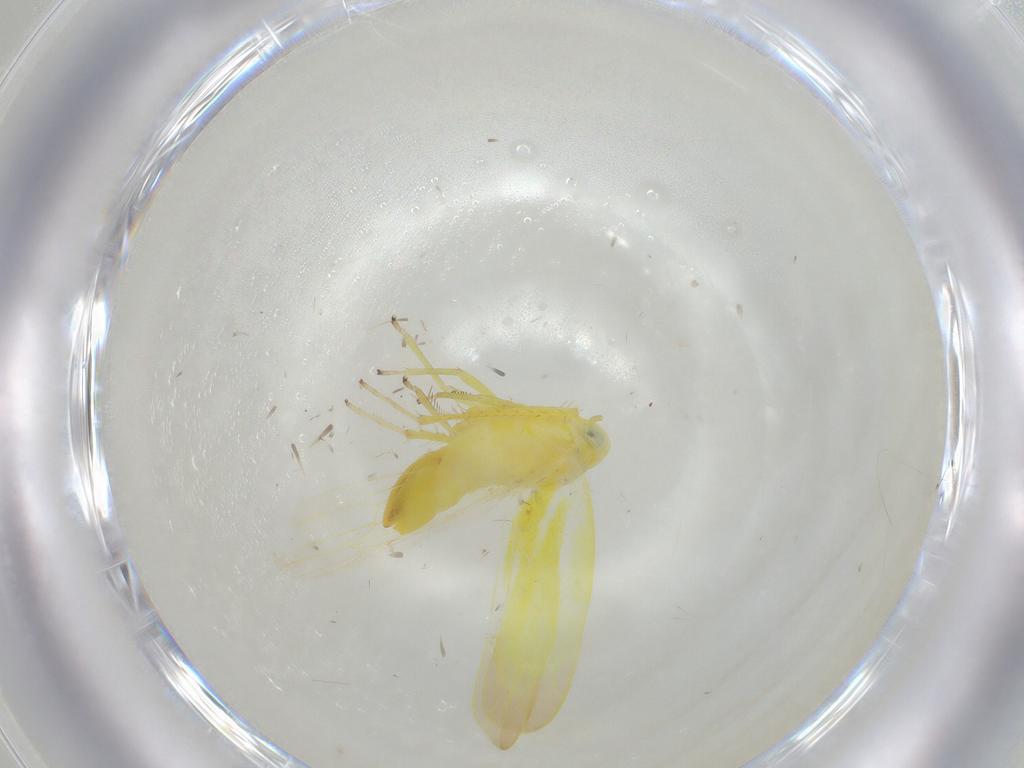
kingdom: Animalia
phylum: Arthropoda
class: Insecta
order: Hemiptera
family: Cicadellidae
